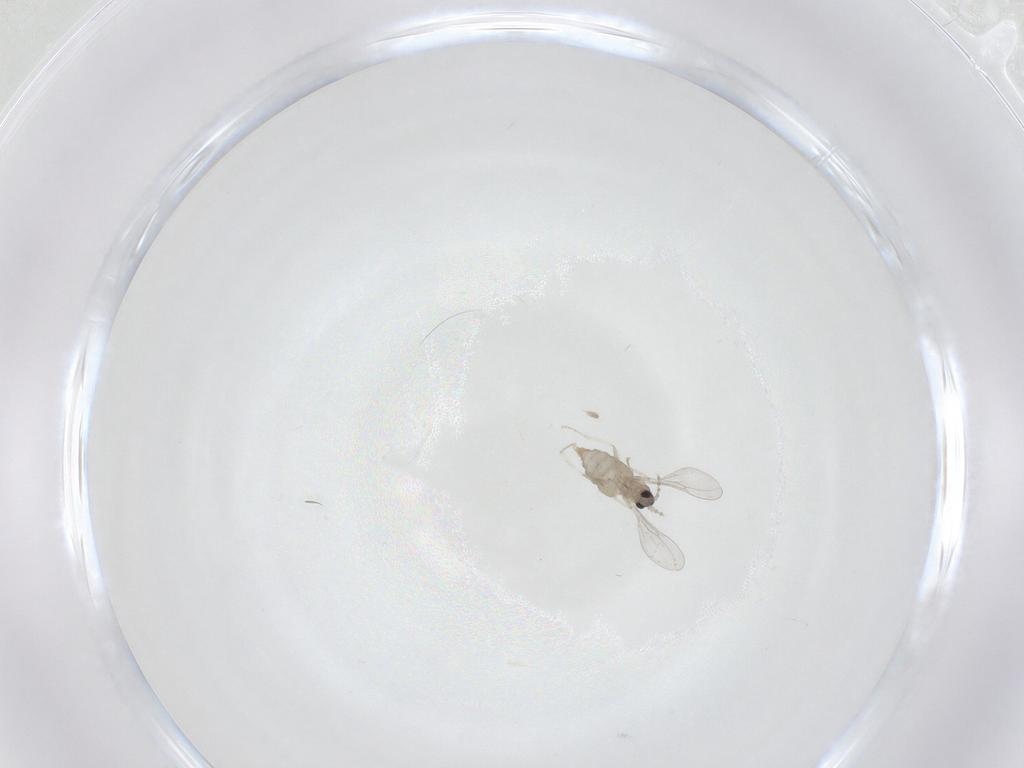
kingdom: Animalia
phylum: Arthropoda
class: Insecta
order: Diptera
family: Cecidomyiidae
